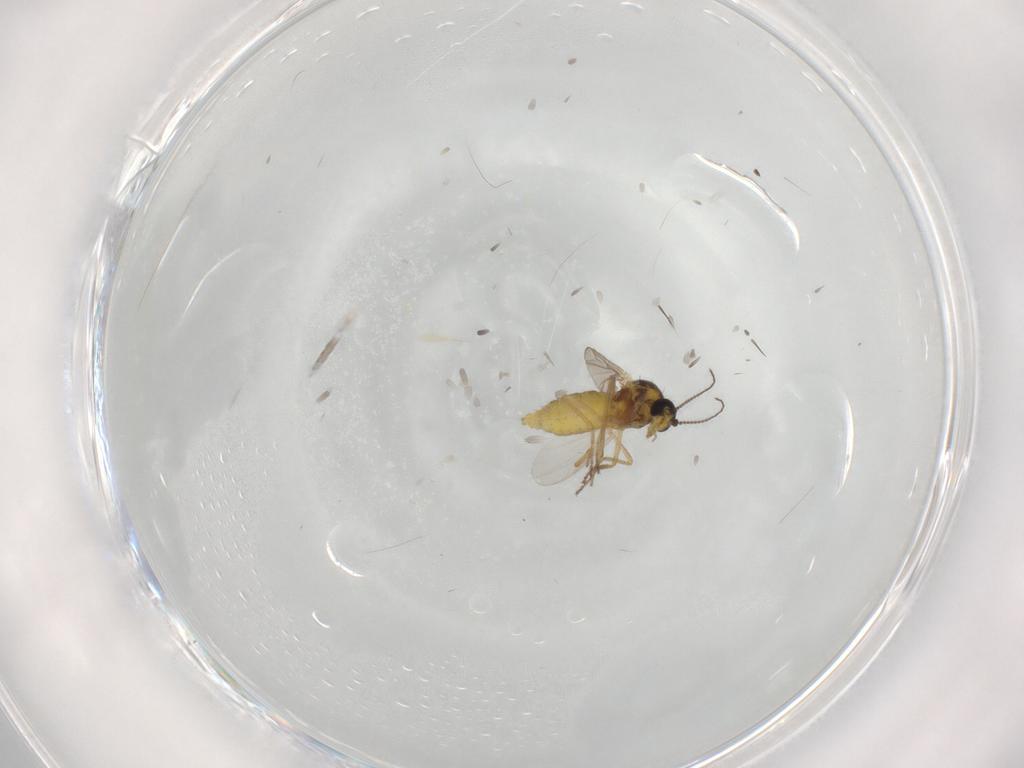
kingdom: Animalia
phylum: Arthropoda
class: Insecta
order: Diptera
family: Ceratopogonidae
